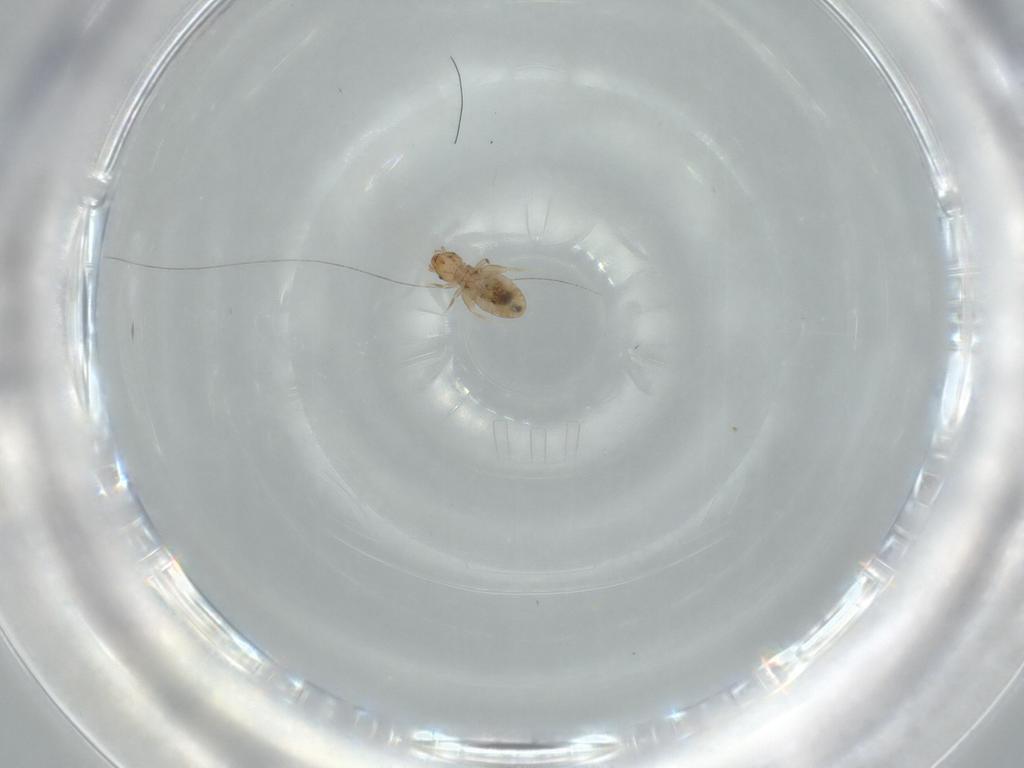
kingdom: Animalia
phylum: Arthropoda
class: Insecta
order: Psocodea
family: Liposcelididae
